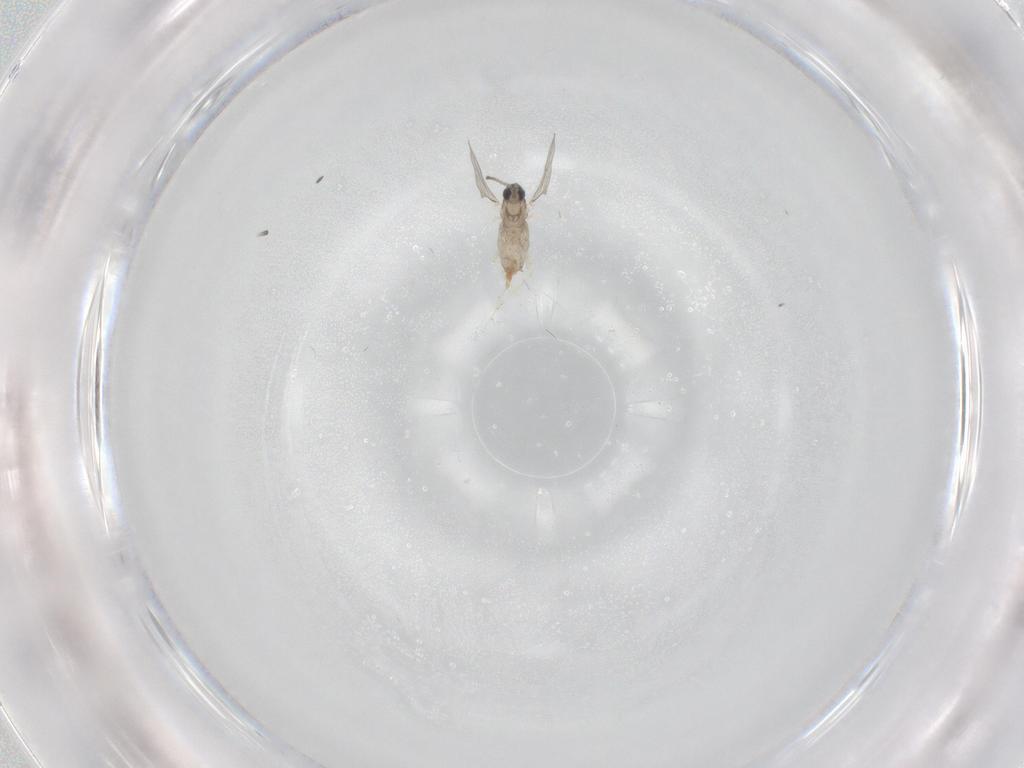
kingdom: Animalia
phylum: Arthropoda
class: Insecta
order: Diptera
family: Cecidomyiidae
